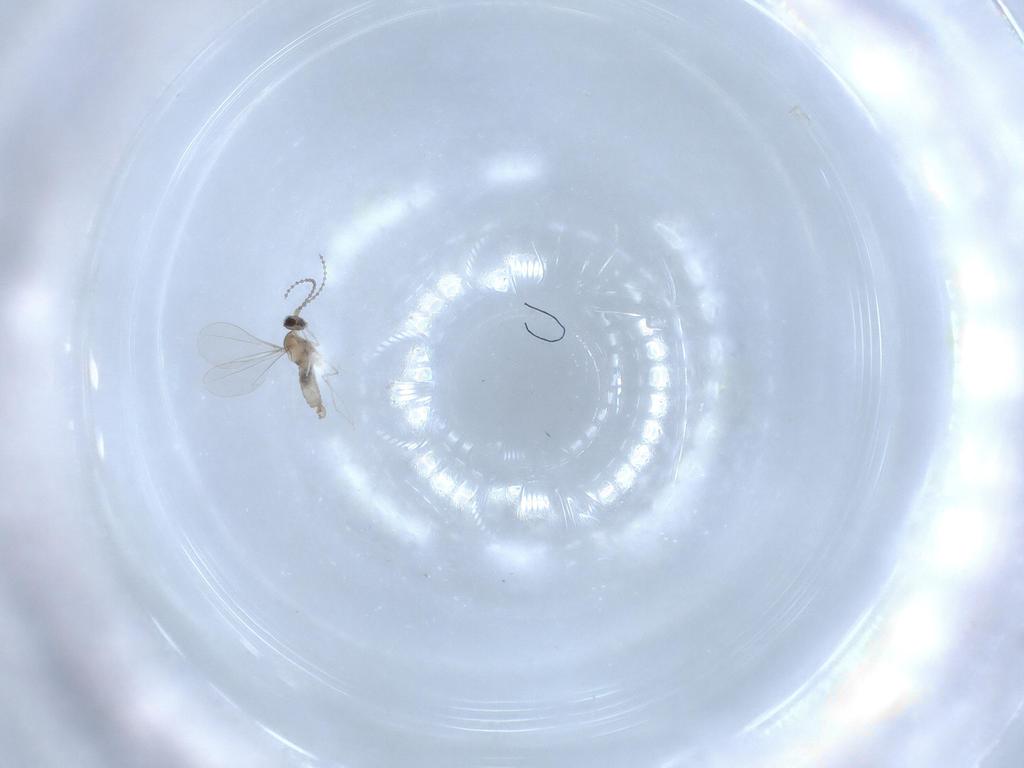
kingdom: Animalia
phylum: Arthropoda
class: Insecta
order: Diptera
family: Cecidomyiidae
